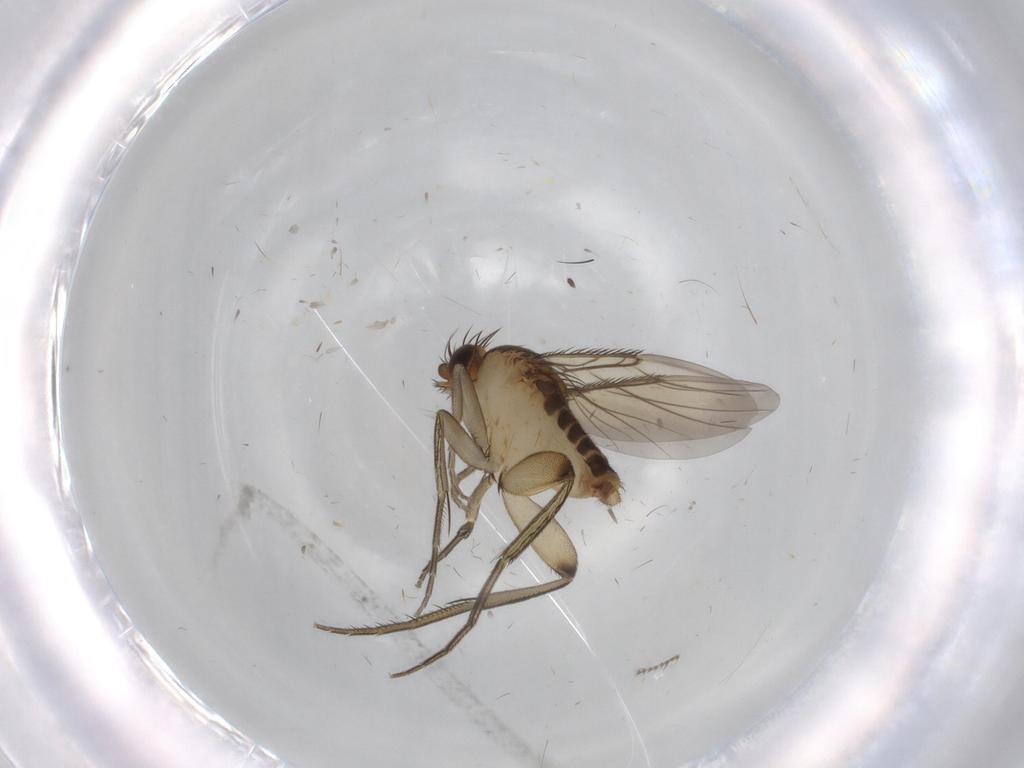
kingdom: Animalia
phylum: Arthropoda
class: Insecta
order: Diptera
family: Phoridae
